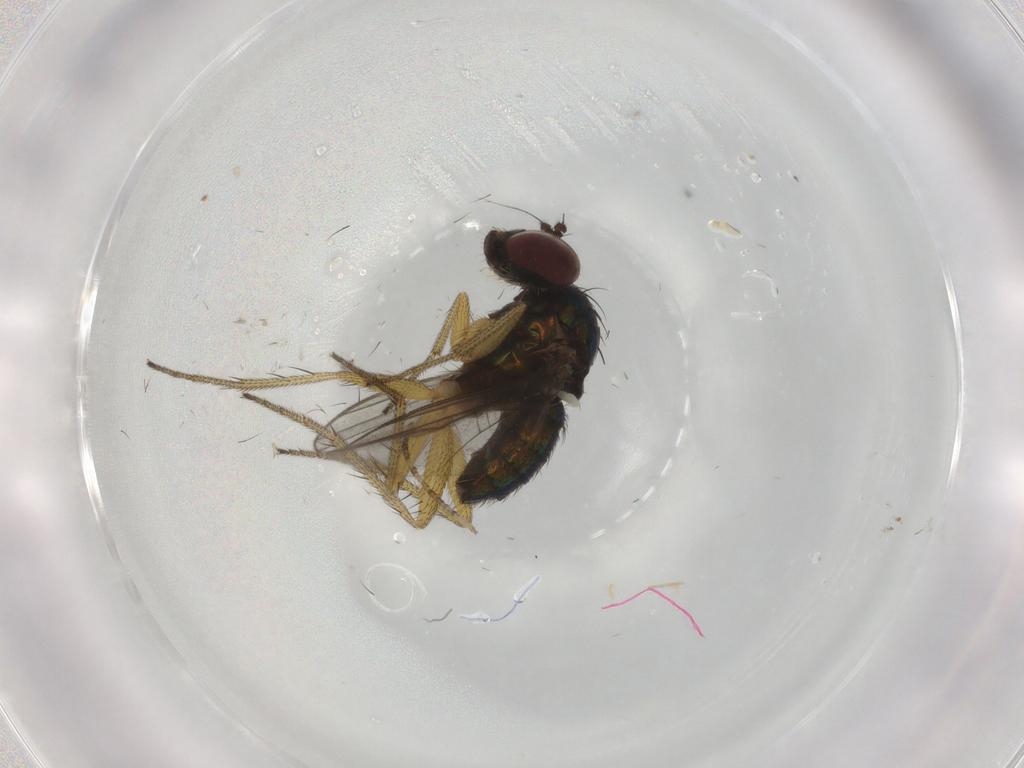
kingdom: Animalia
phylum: Arthropoda
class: Insecta
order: Diptera
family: Dolichopodidae
